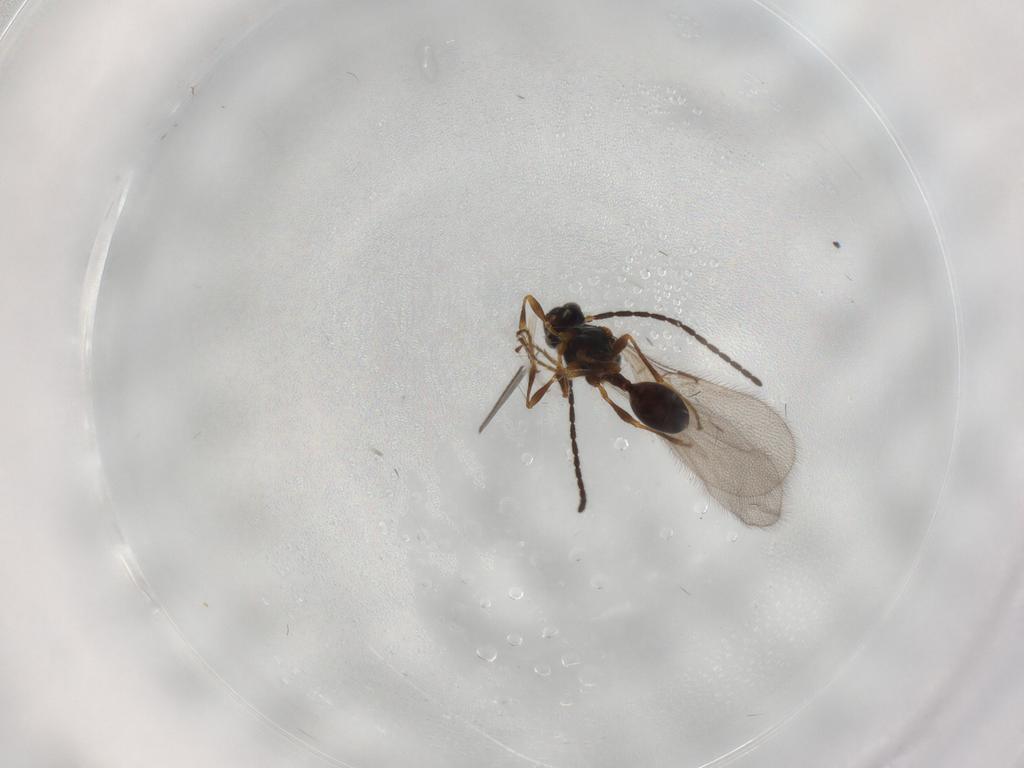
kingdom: Animalia
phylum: Arthropoda
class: Insecta
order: Hymenoptera
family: Diapriidae
